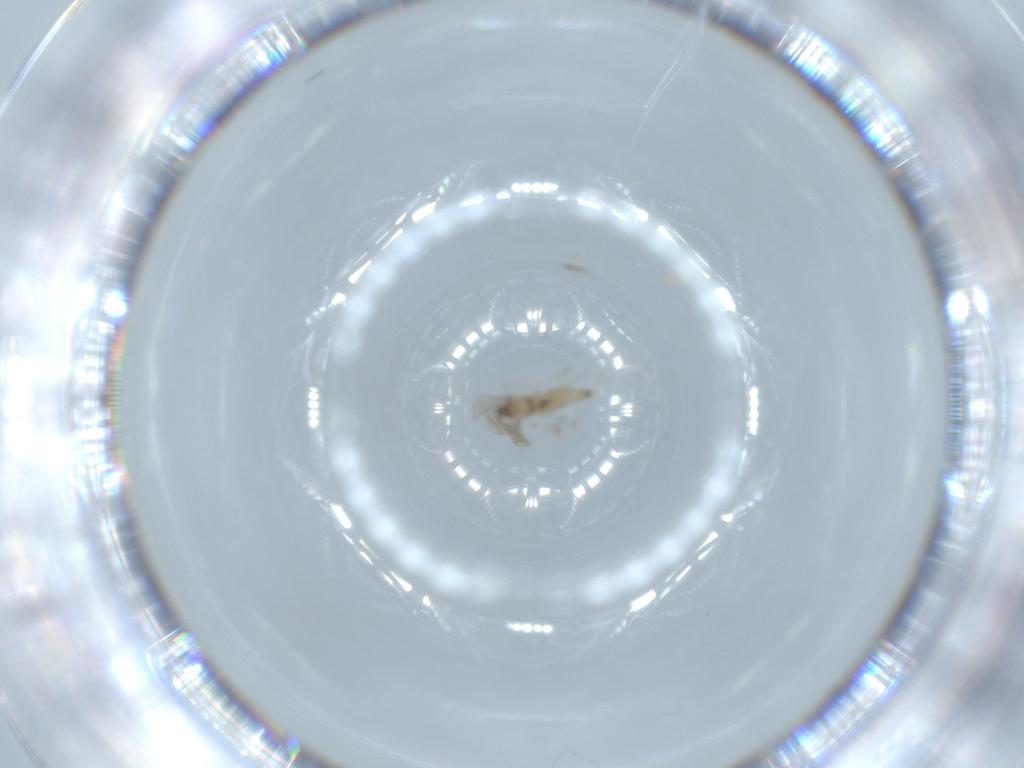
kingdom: Animalia
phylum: Arthropoda
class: Insecta
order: Diptera
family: Cecidomyiidae
